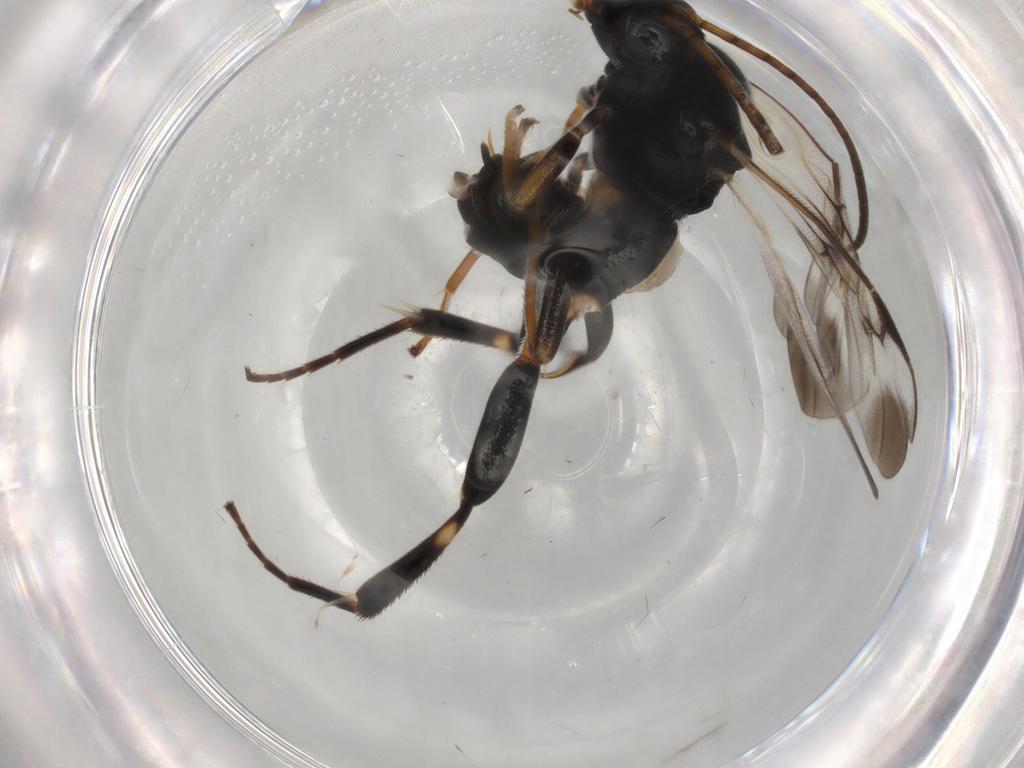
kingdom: Animalia
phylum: Arthropoda
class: Insecta
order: Hymenoptera
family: Braconidae
